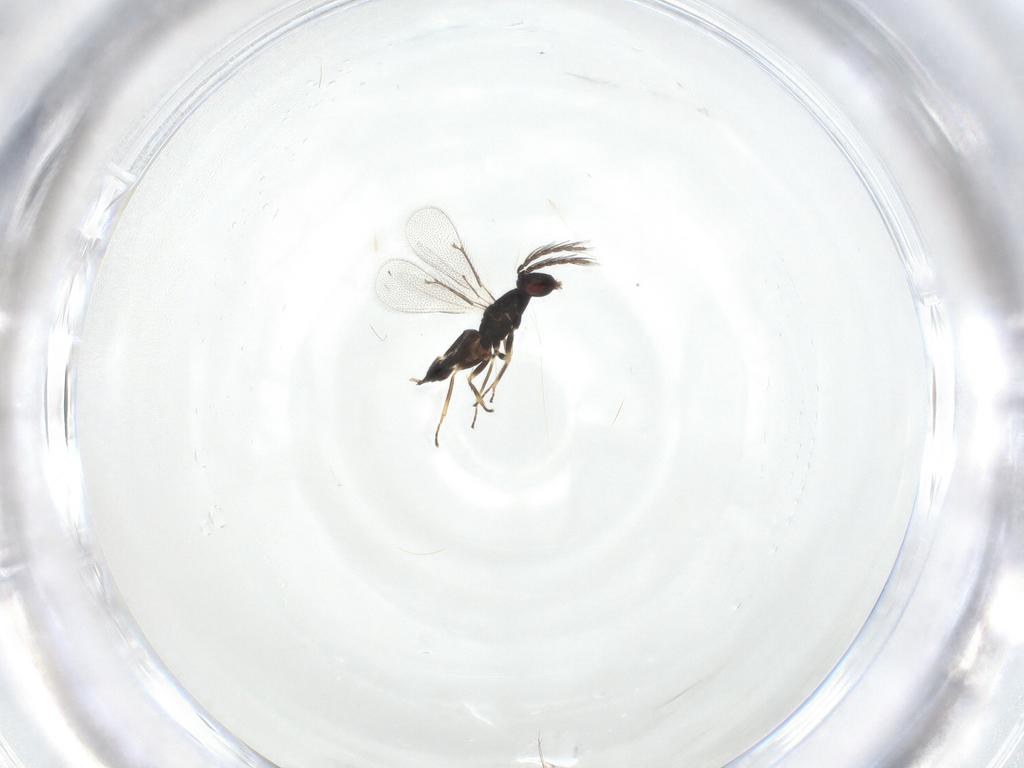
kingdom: Animalia
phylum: Arthropoda
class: Insecta
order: Hymenoptera
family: Eulophidae
